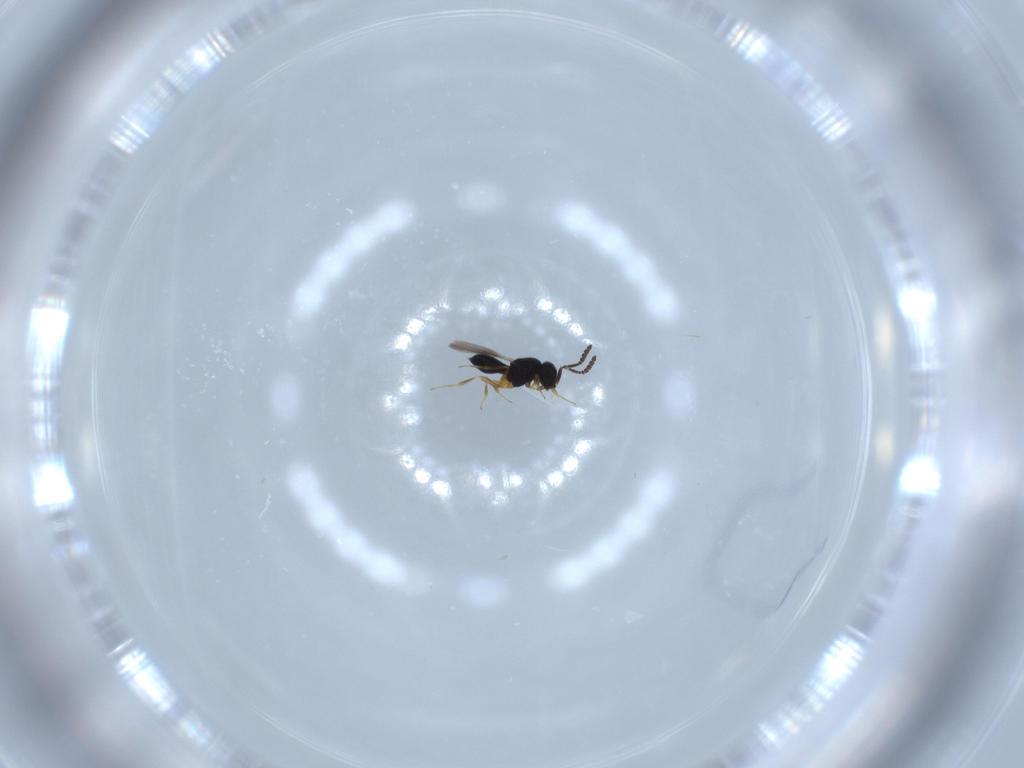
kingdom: Animalia
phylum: Arthropoda
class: Insecta
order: Hymenoptera
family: Scelionidae
